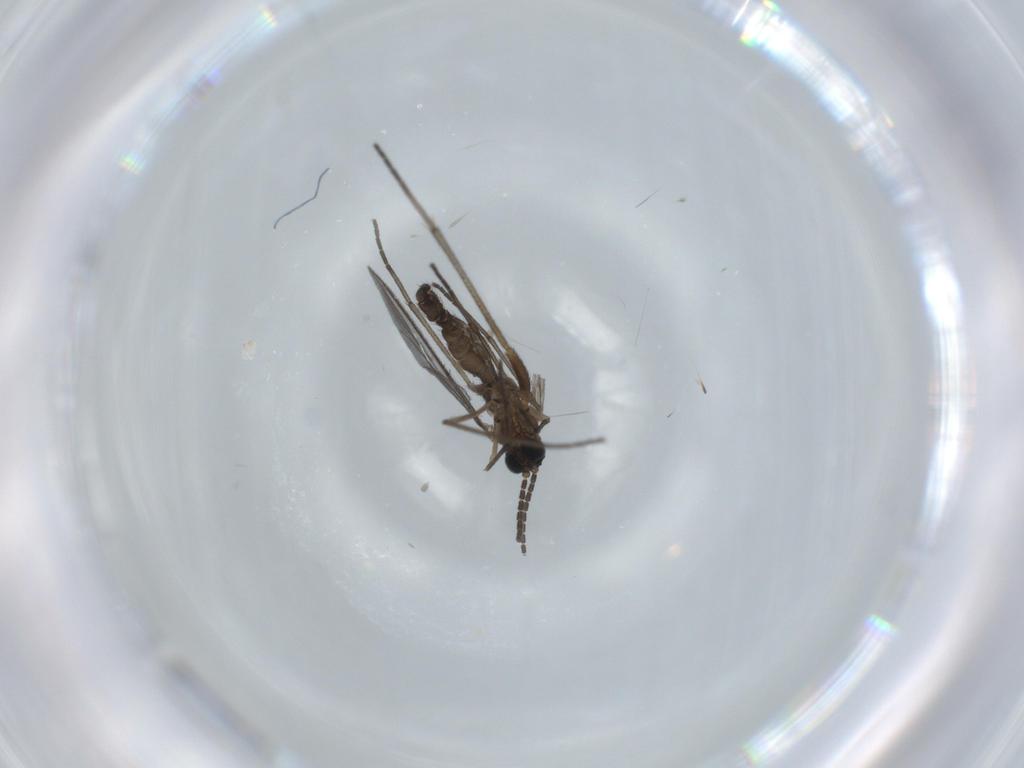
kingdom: Animalia
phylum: Arthropoda
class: Insecta
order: Diptera
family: Sciaridae
